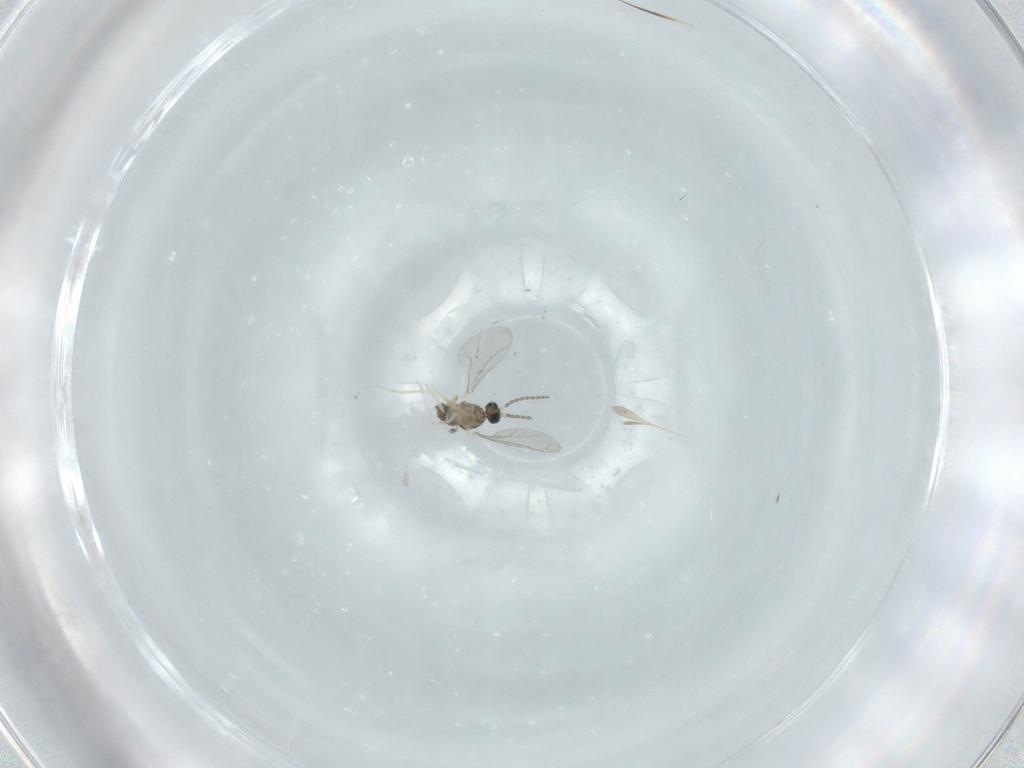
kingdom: Animalia
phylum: Arthropoda
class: Insecta
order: Diptera
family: Cecidomyiidae
